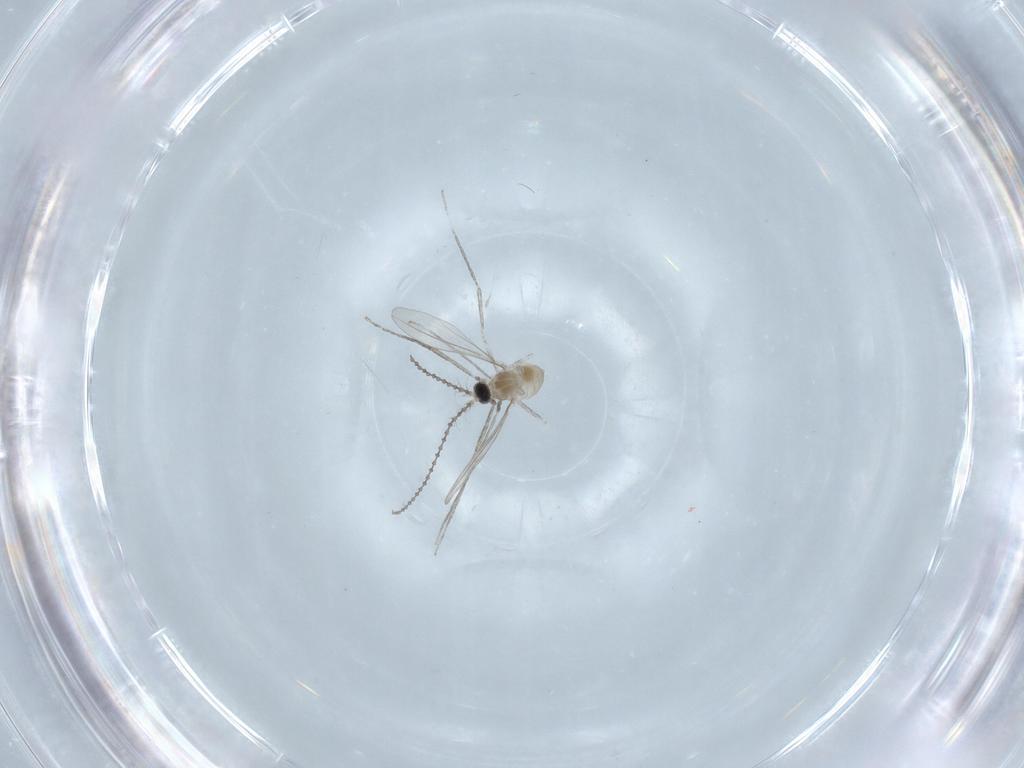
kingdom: Animalia
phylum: Arthropoda
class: Insecta
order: Diptera
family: Cecidomyiidae
